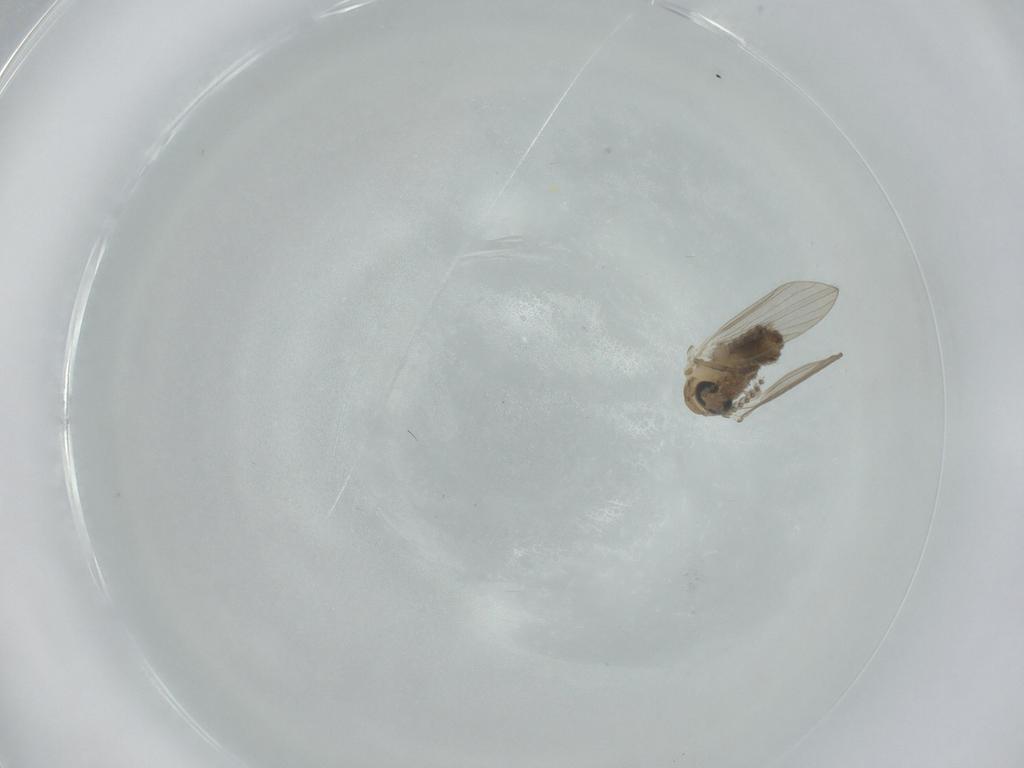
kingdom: Animalia
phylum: Arthropoda
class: Insecta
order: Diptera
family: Psychodidae
